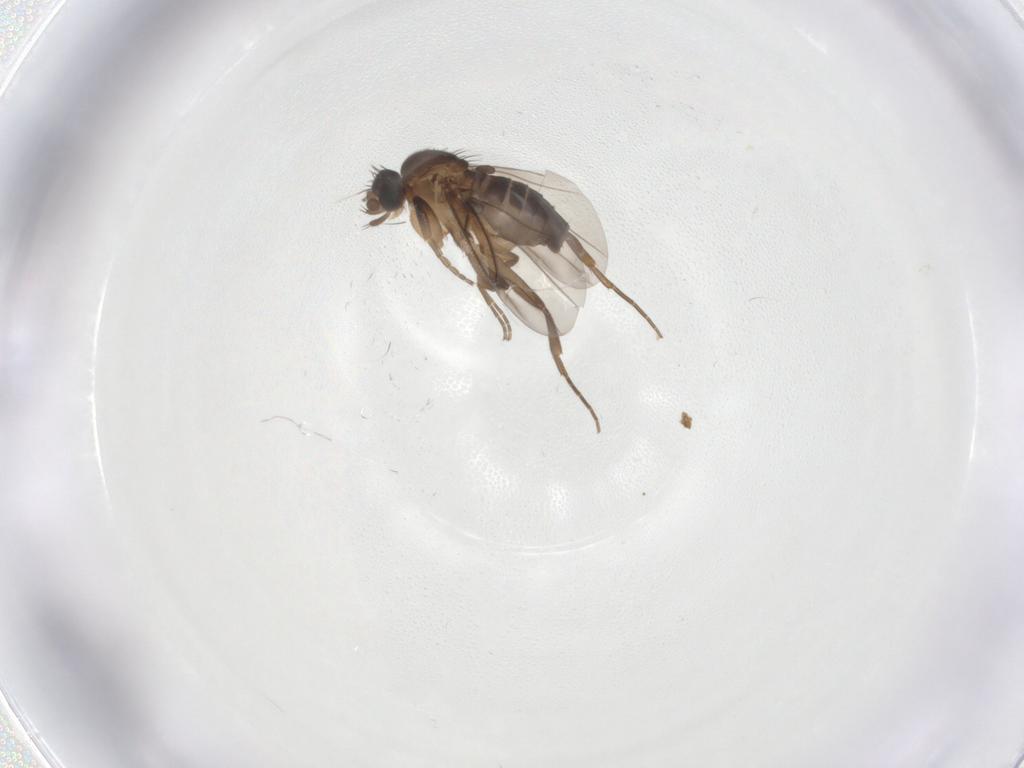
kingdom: Animalia
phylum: Arthropoda
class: Insecta
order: Diptera
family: Phoridae
